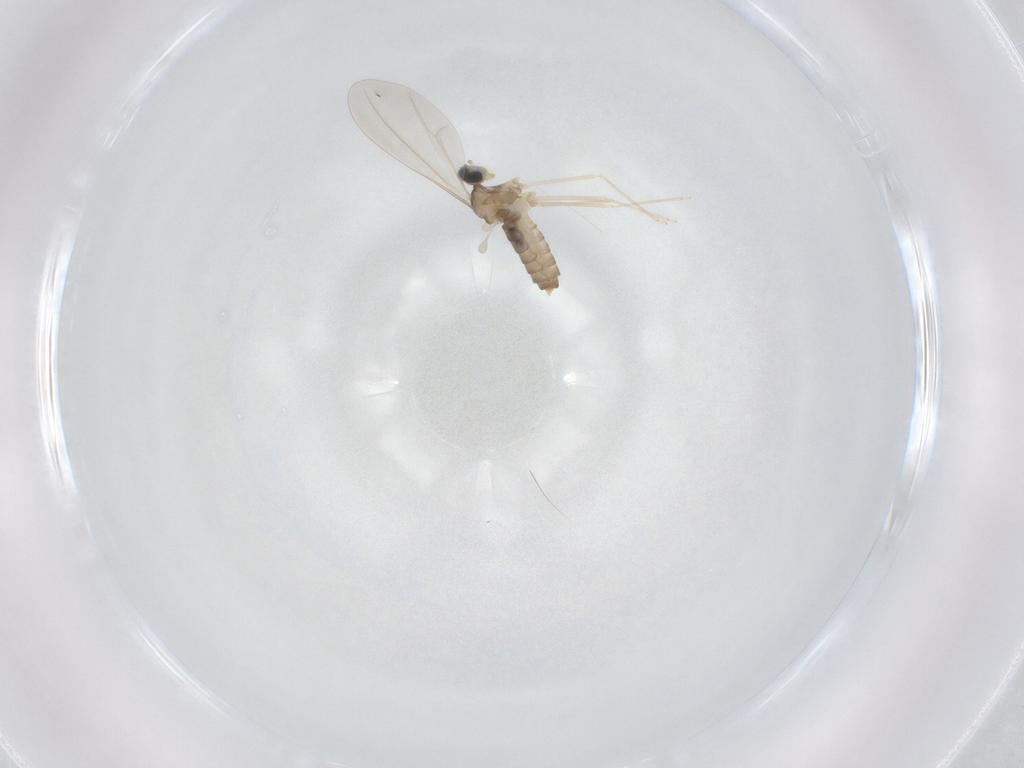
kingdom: Animalia
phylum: Arthropoda
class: Insecta
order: Diptera
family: Cecidomyiidae
